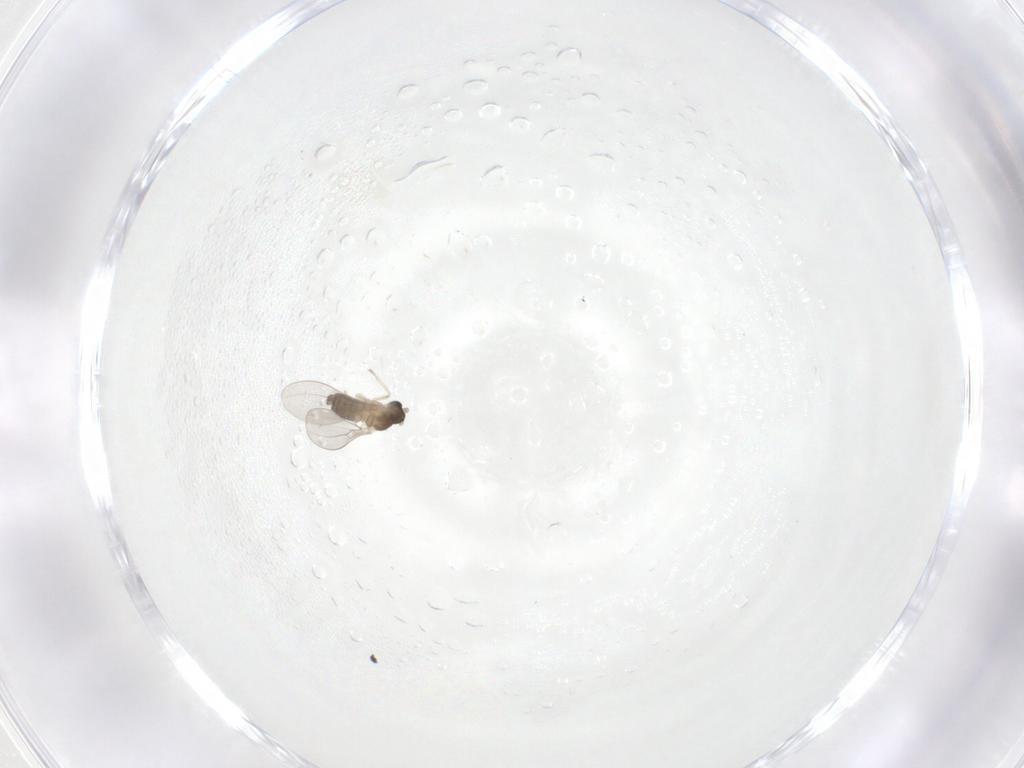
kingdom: Animalia
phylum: Arthropoda
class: Insecta
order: Diptera
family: Cecidomyiidae
